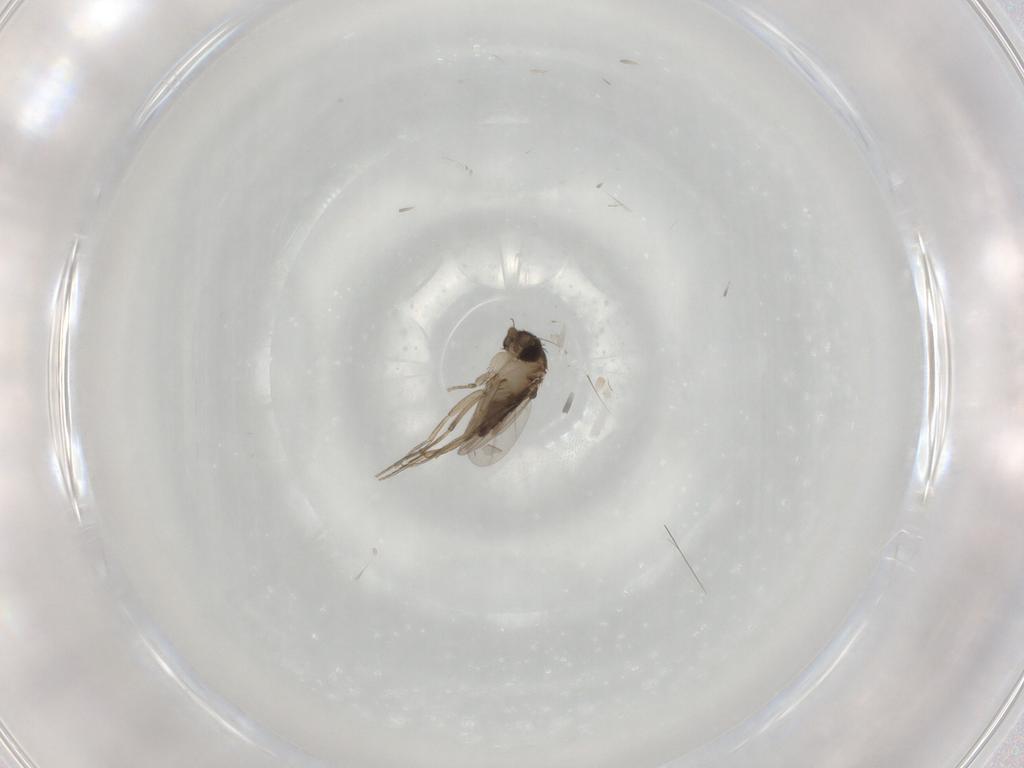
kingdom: Animalia
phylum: Arthropoda
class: Insecta
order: Diptera
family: Phoridae
